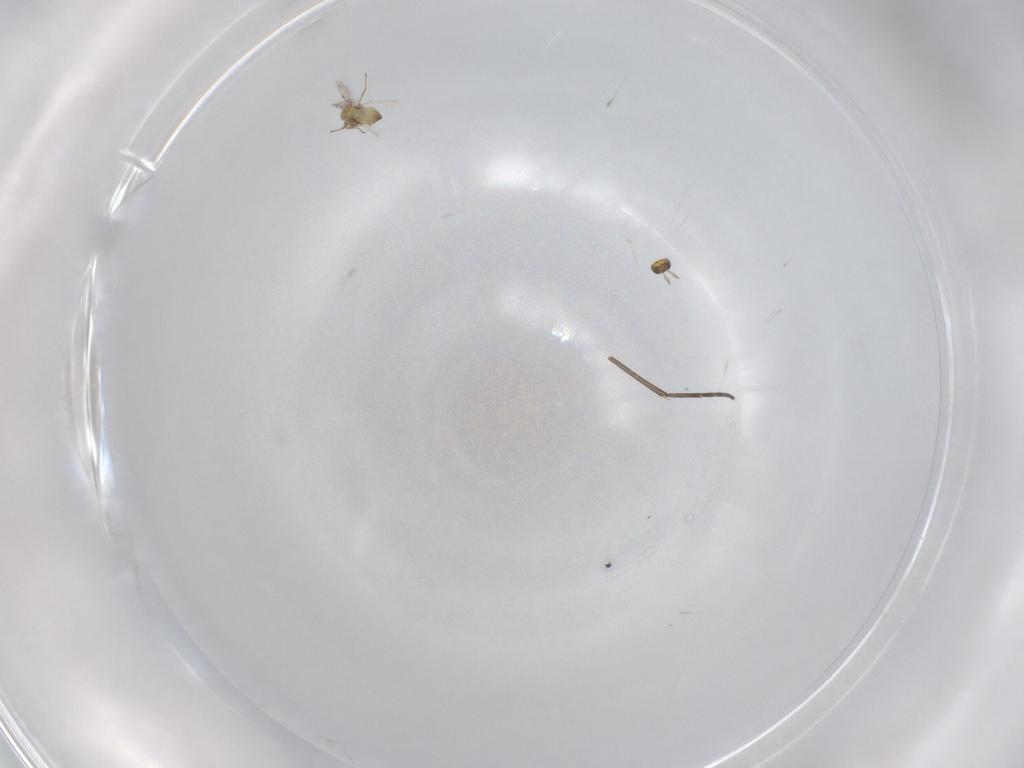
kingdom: Animalia
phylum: Arthropoda
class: Insecta
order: Hymenoptera
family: Trichogrammatidae
